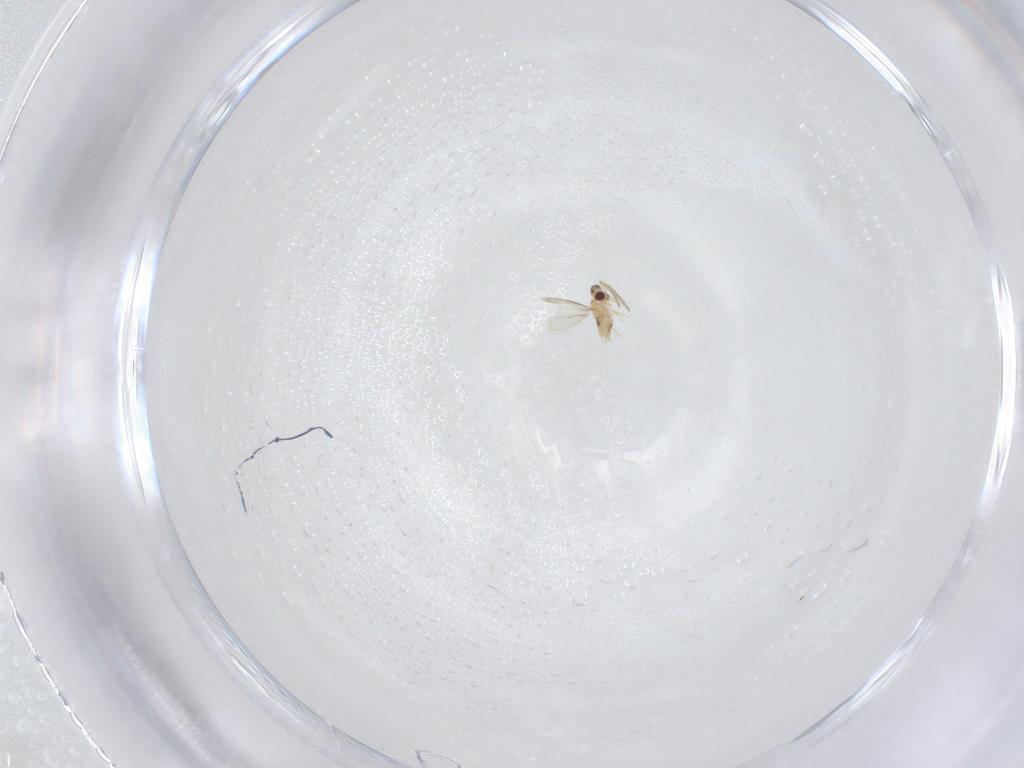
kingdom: Animalia
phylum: Arthropoda
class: Insecta
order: Hymenoptera
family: Aphelinidae
